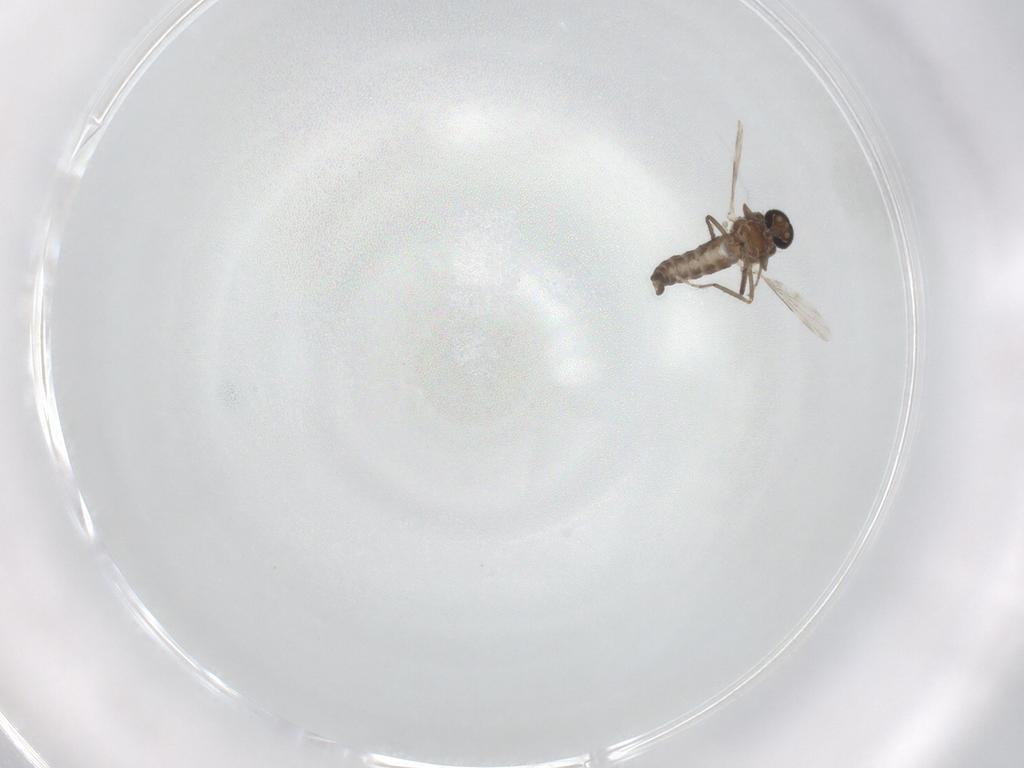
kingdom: Animalia
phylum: Arthropoda
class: Insecta
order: Diptera
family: Ceratopogonidae
